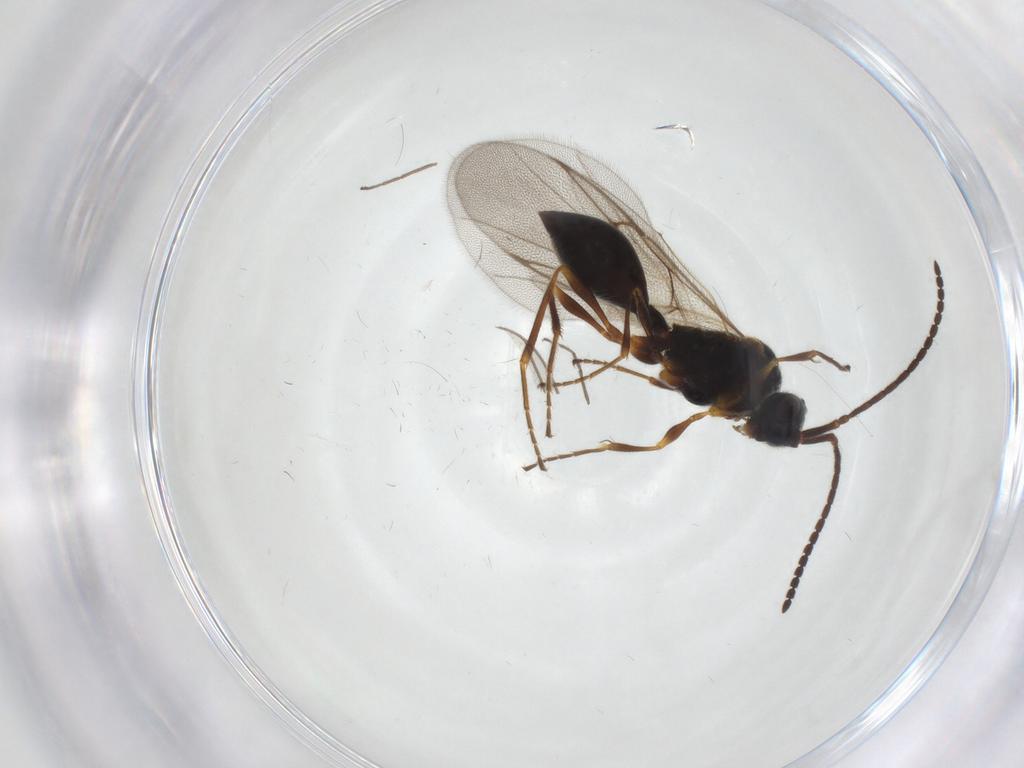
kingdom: Animalia
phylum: Arthropoda
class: Insecta
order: Hymenoptera
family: Diapriidae
